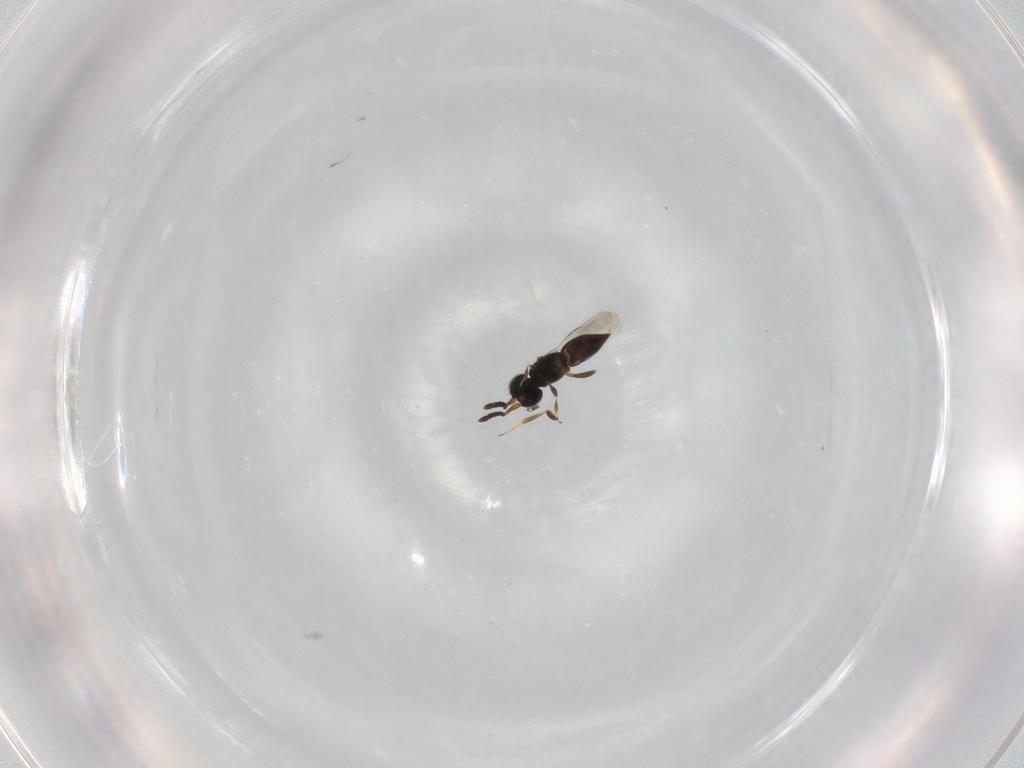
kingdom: Animalia
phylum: Arthropoda
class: Insecta
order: Hymenoptera
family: Ceraphronidae
